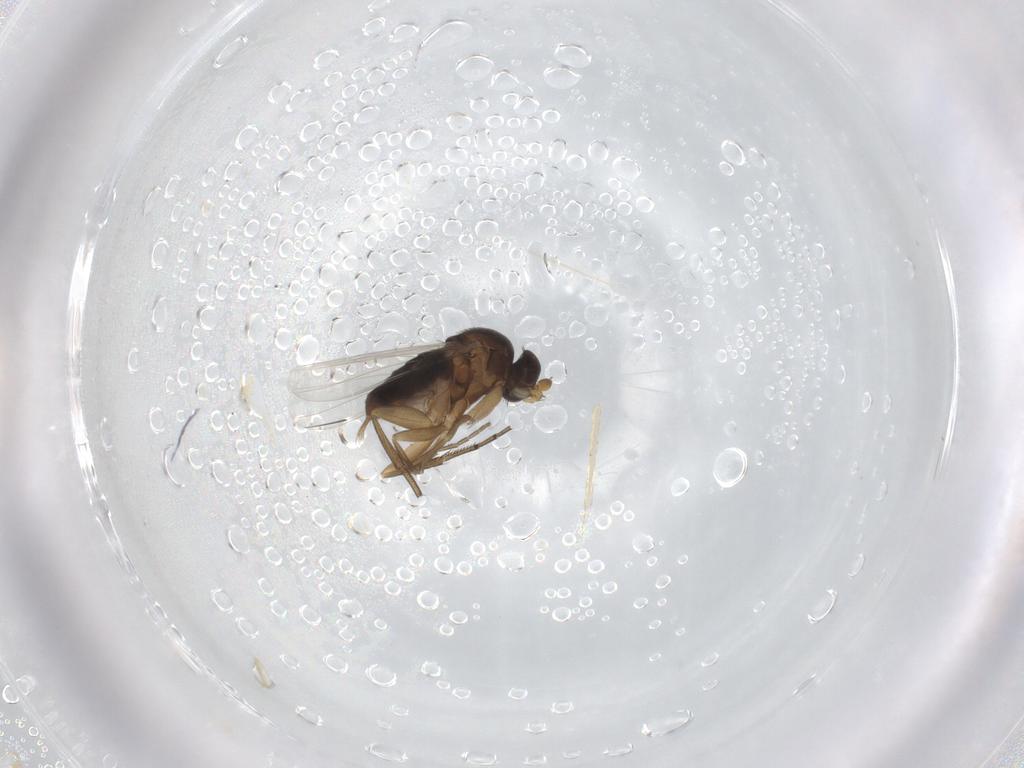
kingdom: Animalia
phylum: Arthropoda
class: Insecta
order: Diptera
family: Phoridae
